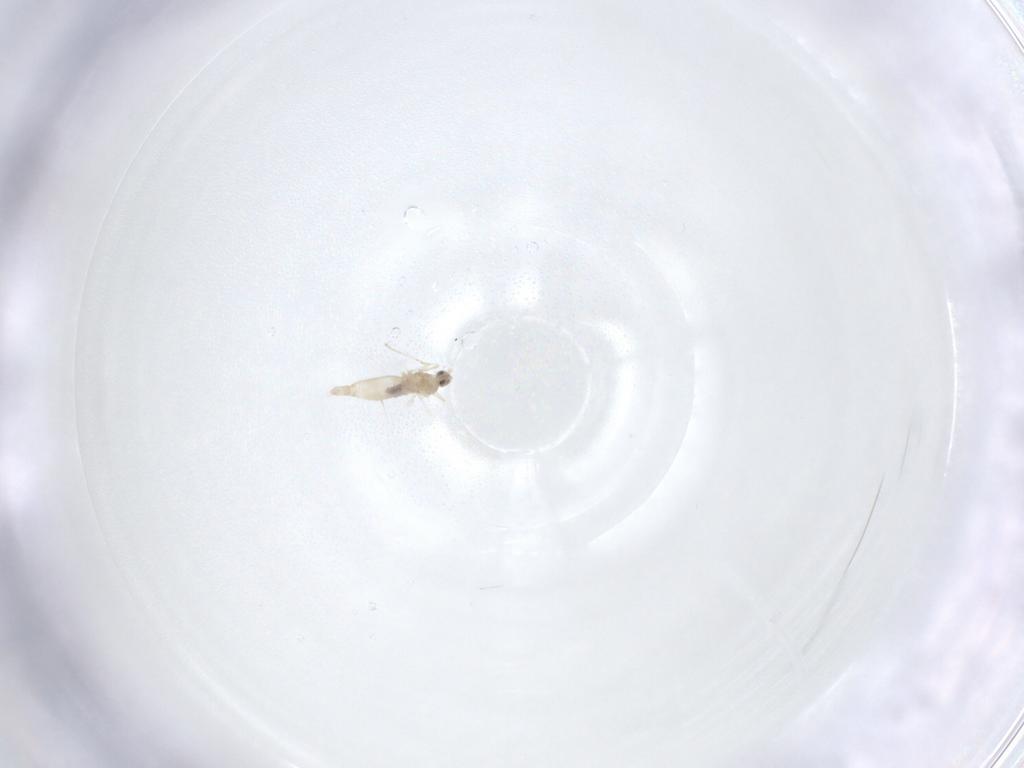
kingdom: Animalia
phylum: Arthropoda
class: Insecta
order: Diptera
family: Cecidomyiidae
